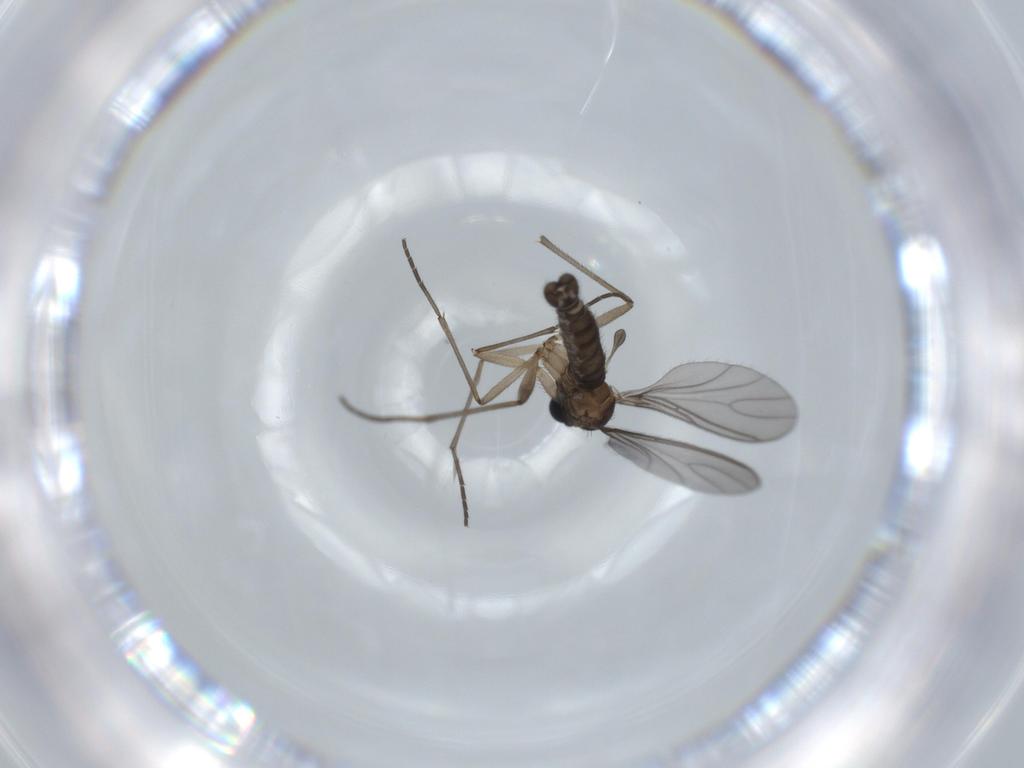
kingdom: Animalia
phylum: Arthropoda
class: Insecta
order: Diptera
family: Sciaridae
